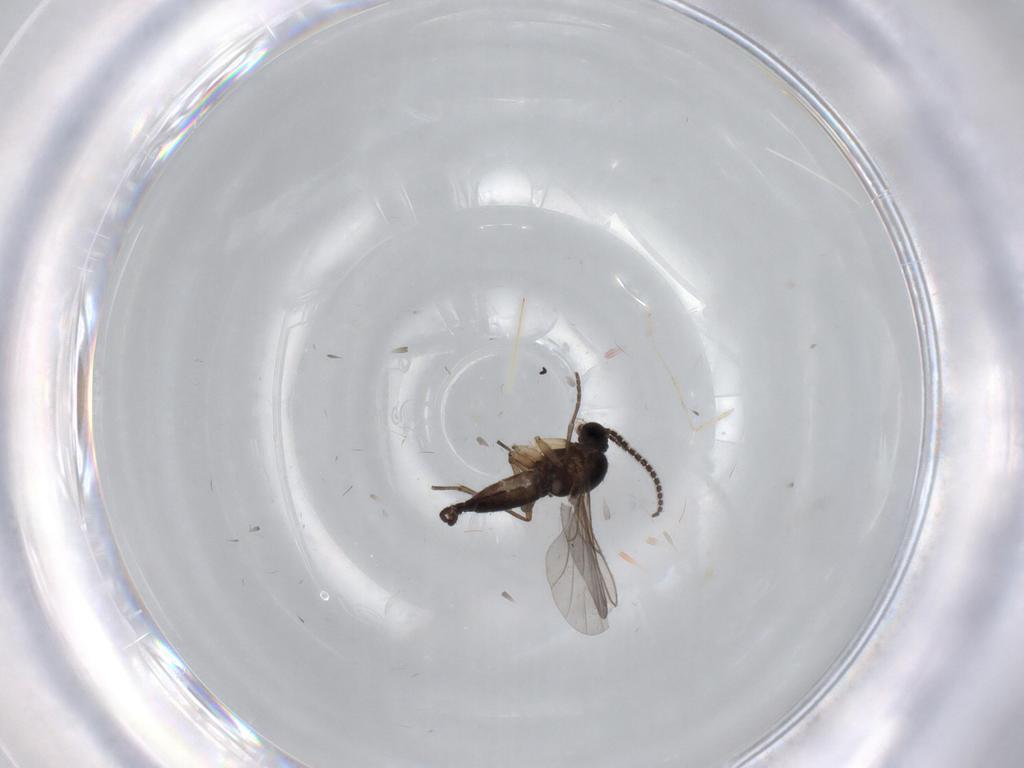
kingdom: Animalia
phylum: Arthropoda
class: Insecta
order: Diptera
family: Sciaridae
